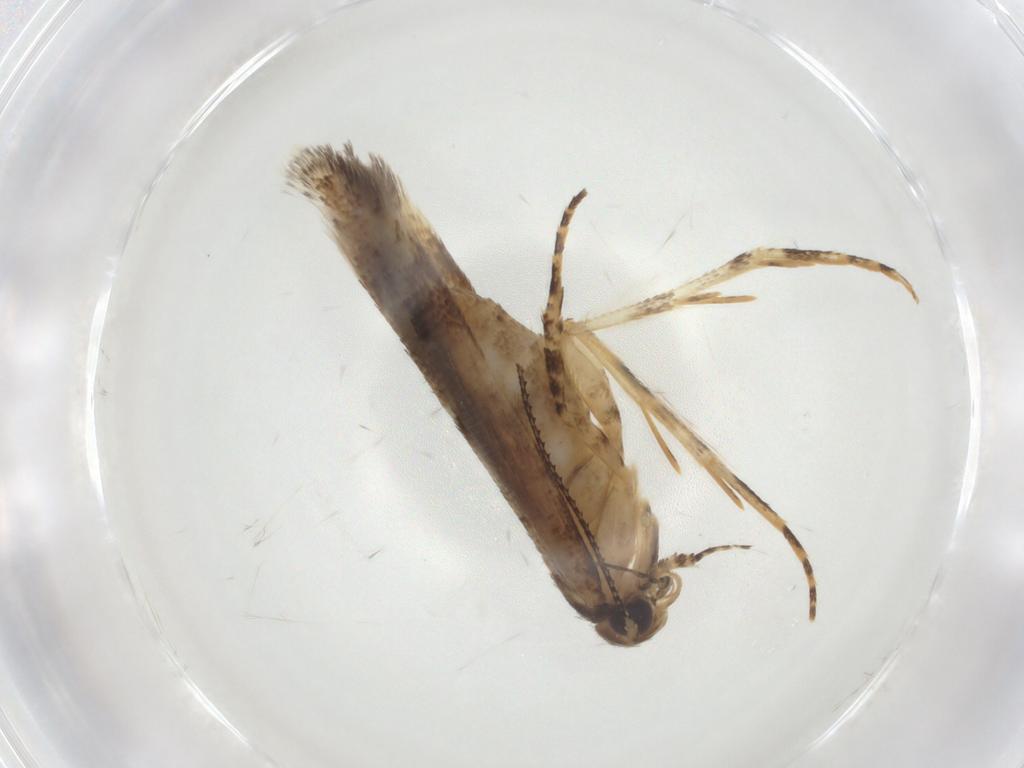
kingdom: Animalia
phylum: Arthropoda
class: Insecta
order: Lepidoptera
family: Gelechiidae
